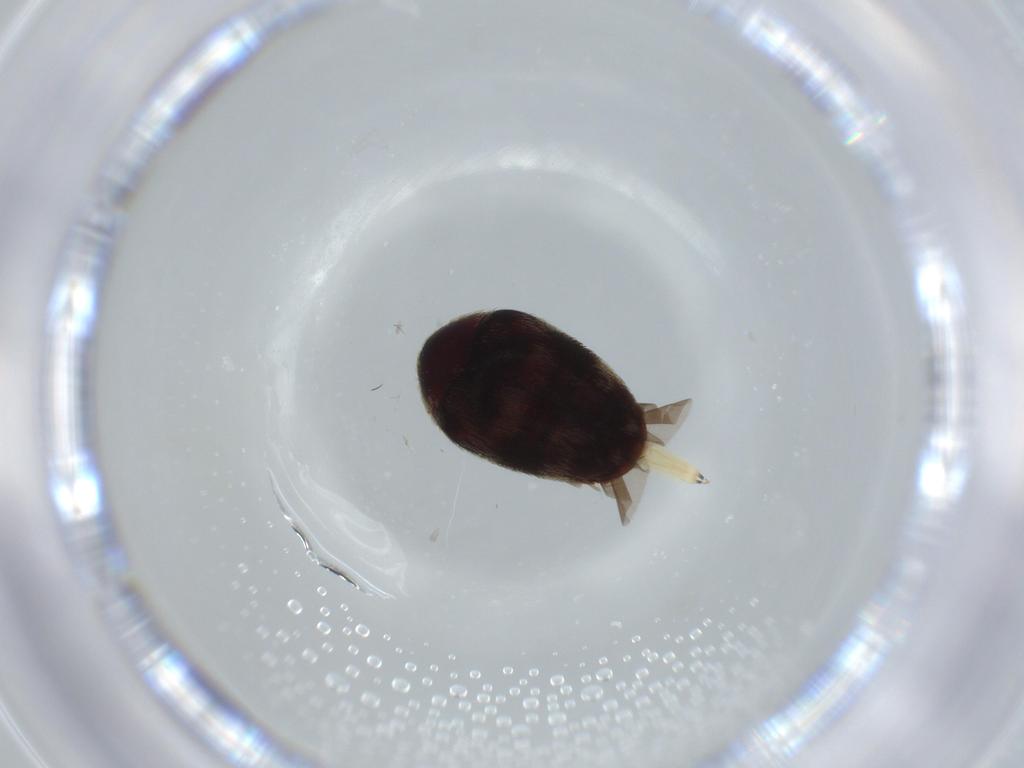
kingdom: Animalia
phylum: Arthropoda
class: Insecta
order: Coleoptera
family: Dermestidae
